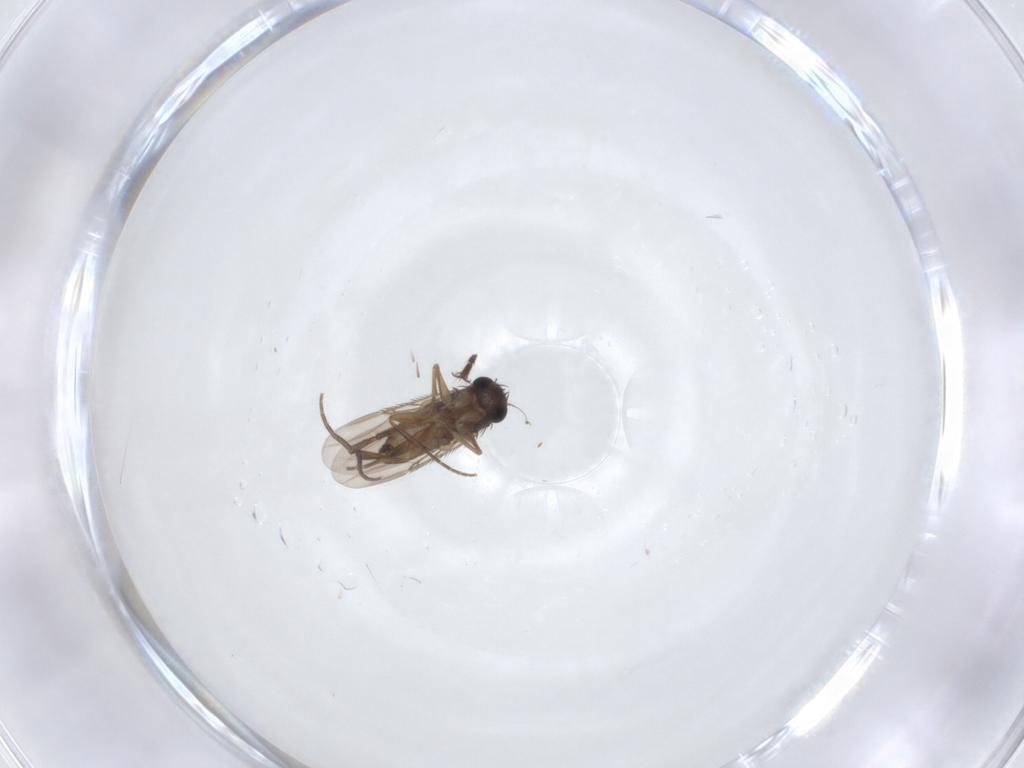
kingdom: Animalia
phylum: Arthropoda
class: Insecta
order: Diptera
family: Phoridae
